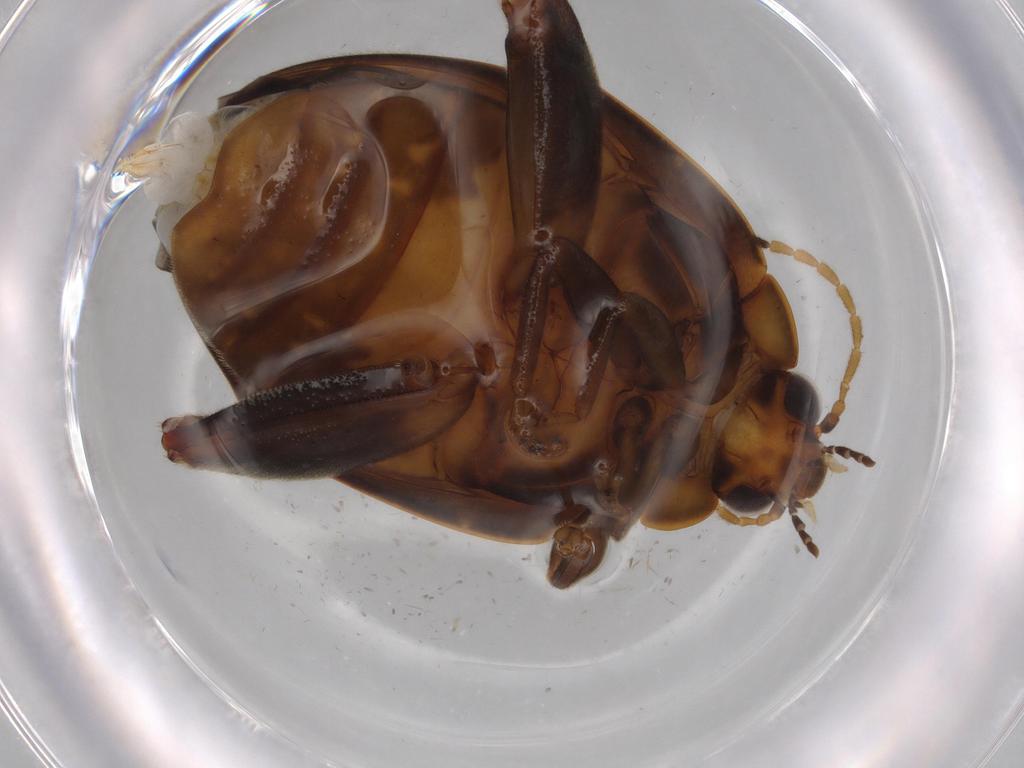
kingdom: Animalia
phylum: Arthropoda
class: Insecta
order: Coleoptera
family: Scirtidae
